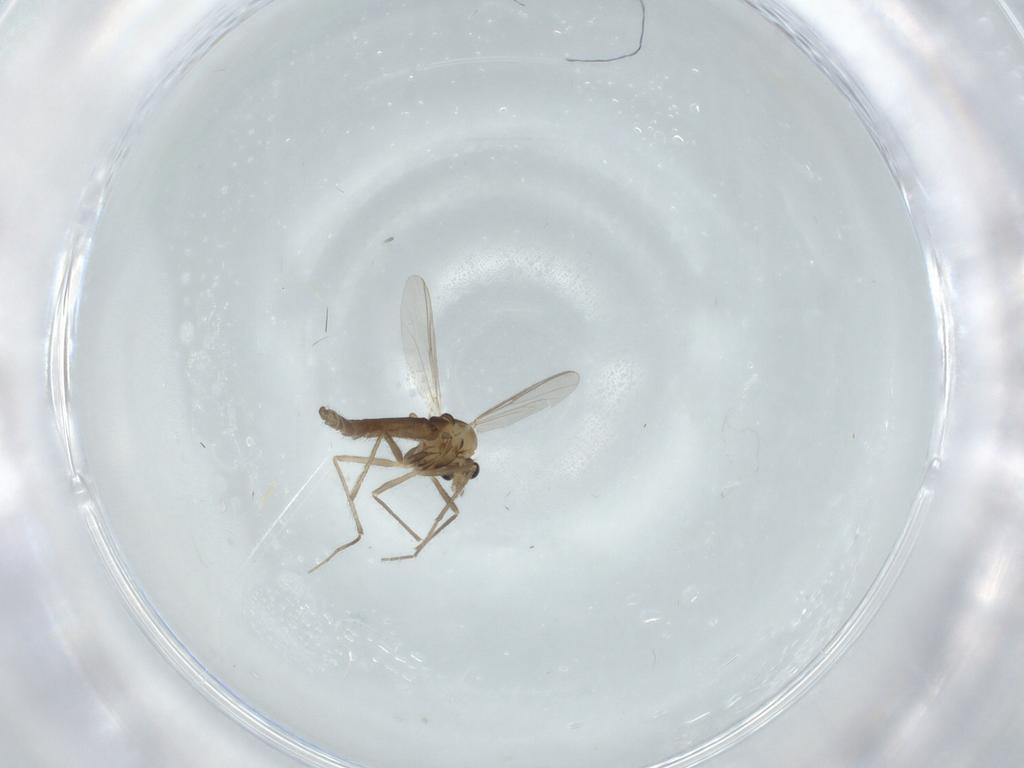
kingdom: Animalia
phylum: Arthropoda
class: Insecta
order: Diptera
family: Chironomidae
